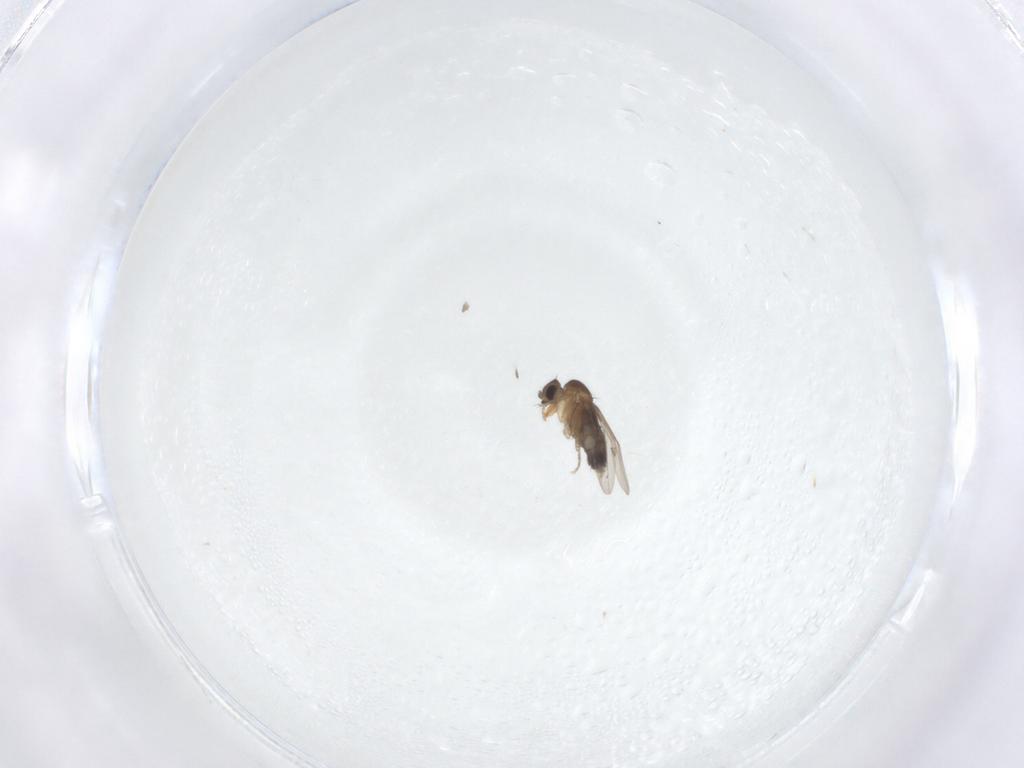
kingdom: Animalia
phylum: Arthropoda
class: Insecta
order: Diptera
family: Phoridae
